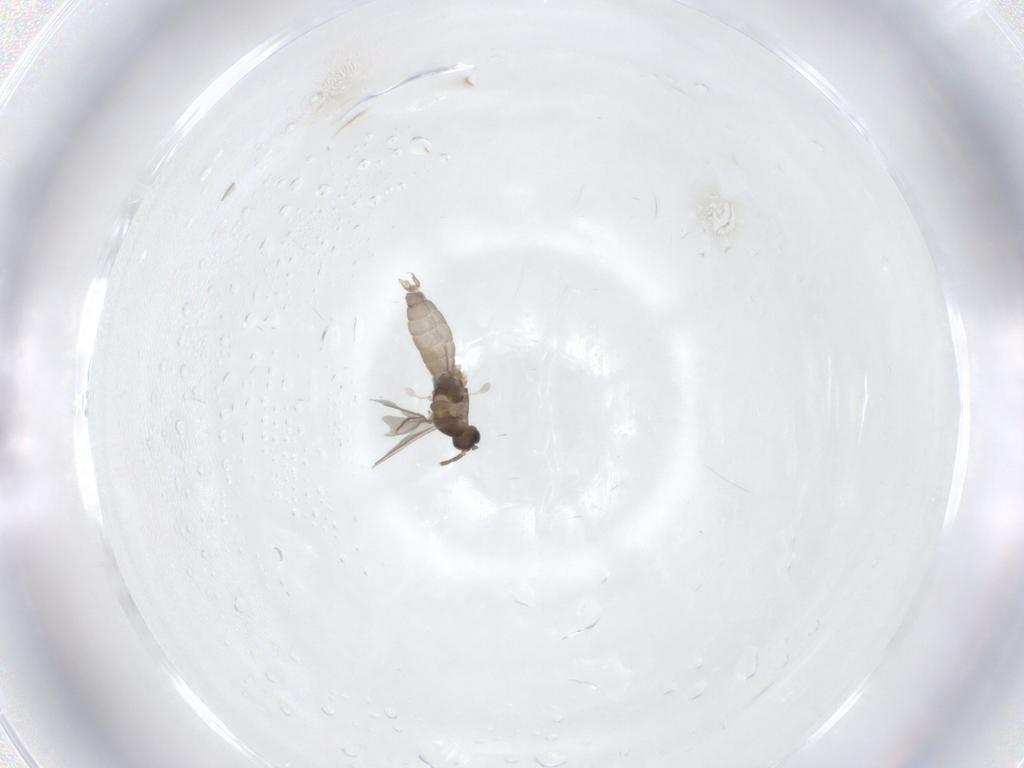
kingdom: Animalia
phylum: Arthropoda
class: Insecta
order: Diptera
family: Cecidomyiidae
